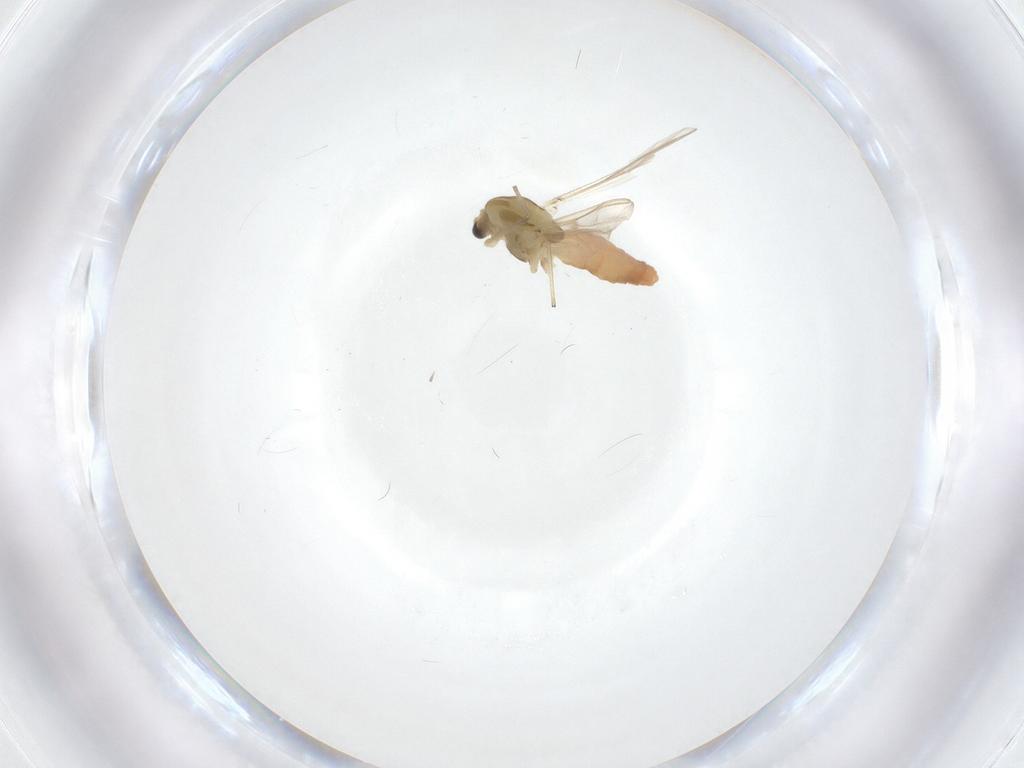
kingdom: Animalia
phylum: Arthropoda
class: Insecta
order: Diptera
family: Chironomidae
